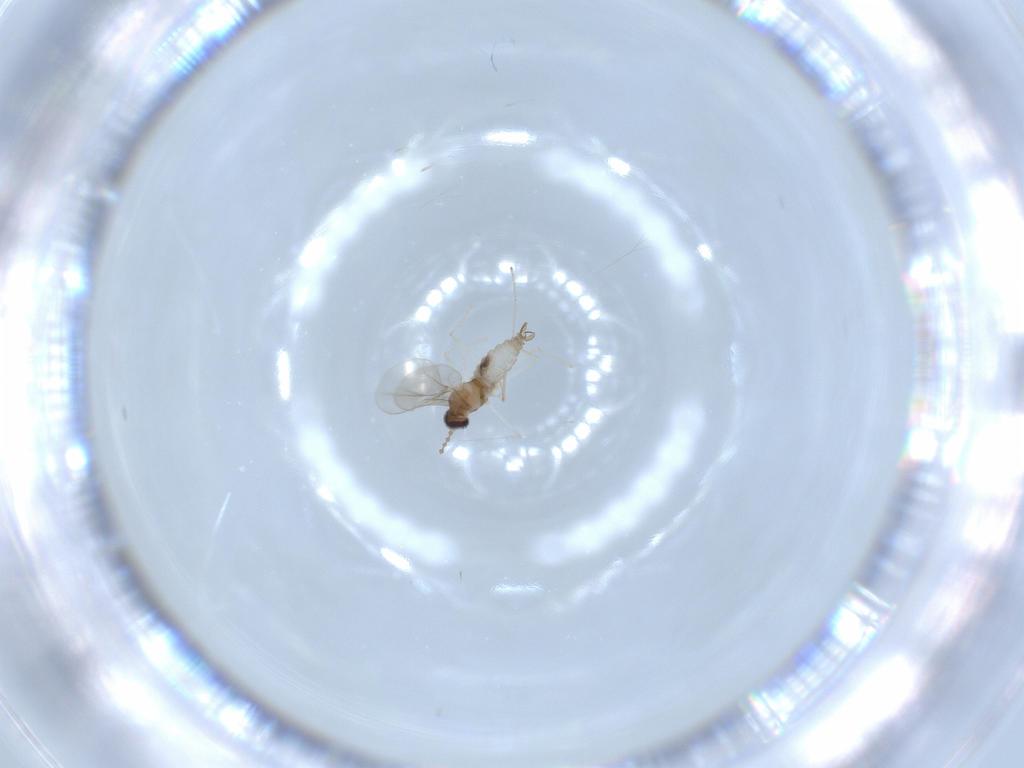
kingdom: Animalia
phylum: Arthropoda
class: Insecta
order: Diptera
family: Cecidomyiidae
